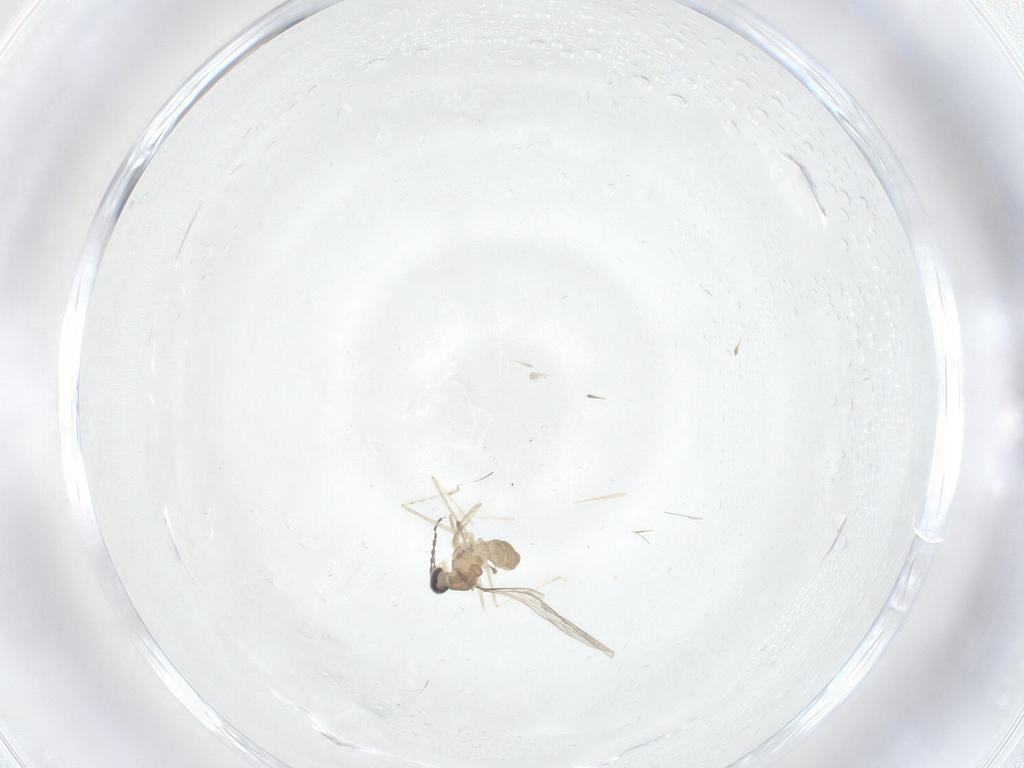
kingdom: Animalia
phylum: Arthropoda
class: Insecta
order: Diptera
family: Cecidomyiidae
